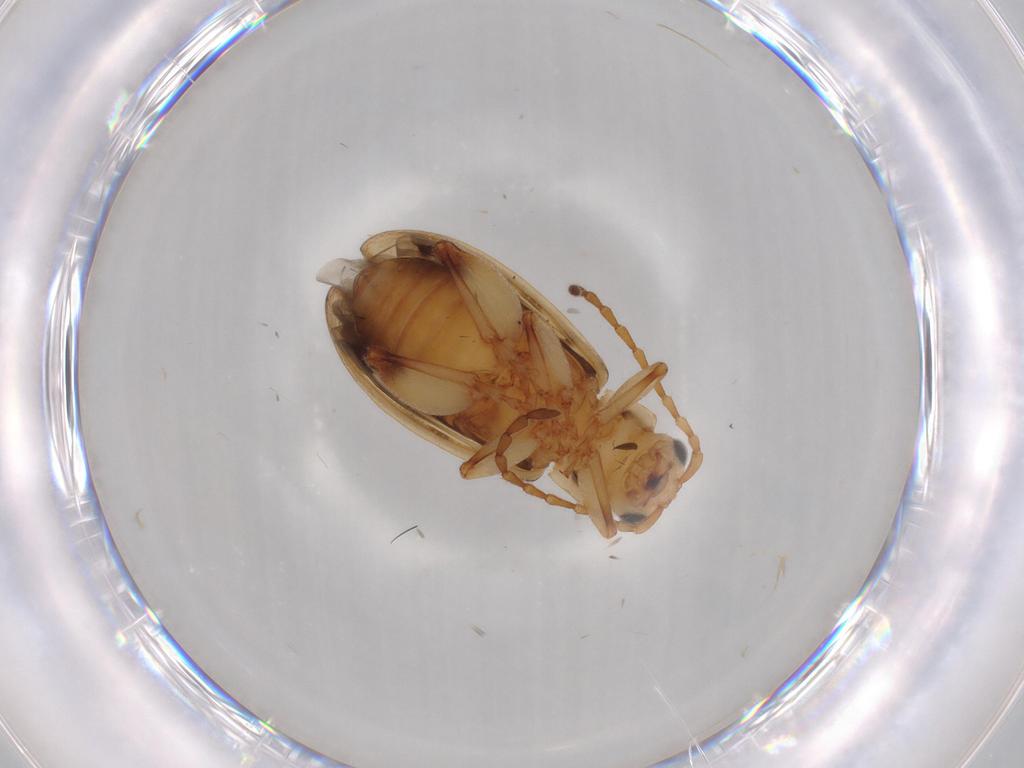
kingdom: Animalia
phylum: Arthropoda
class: Insecta
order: Coleoptera
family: Chrysomelidae
